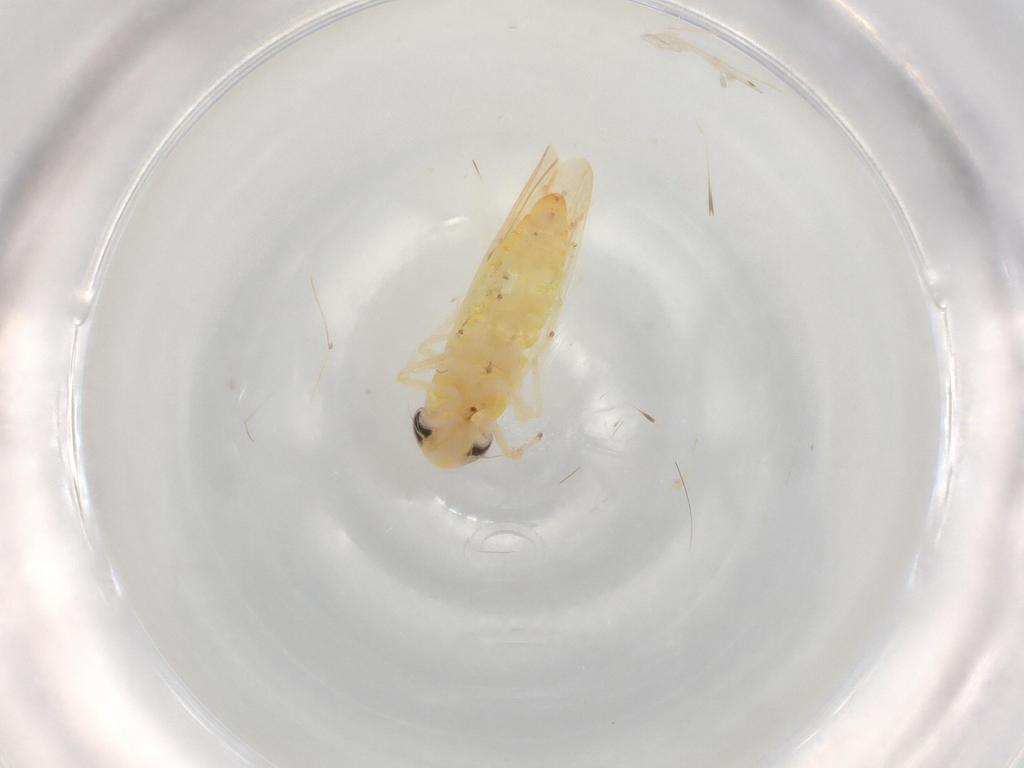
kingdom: Animalia
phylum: Arthropoda
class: Insecta
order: Hemiptera
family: Cicadellidae
